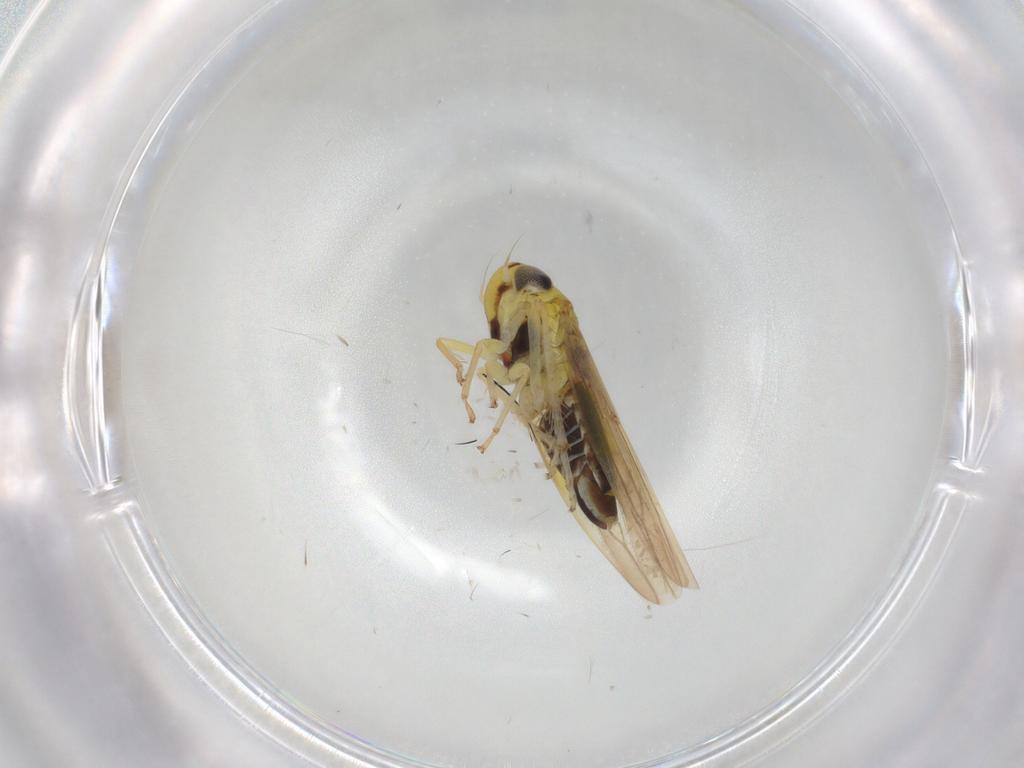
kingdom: Animalia
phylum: Arthropoda
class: Insecta
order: Hemiptera
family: Cicadellidae
